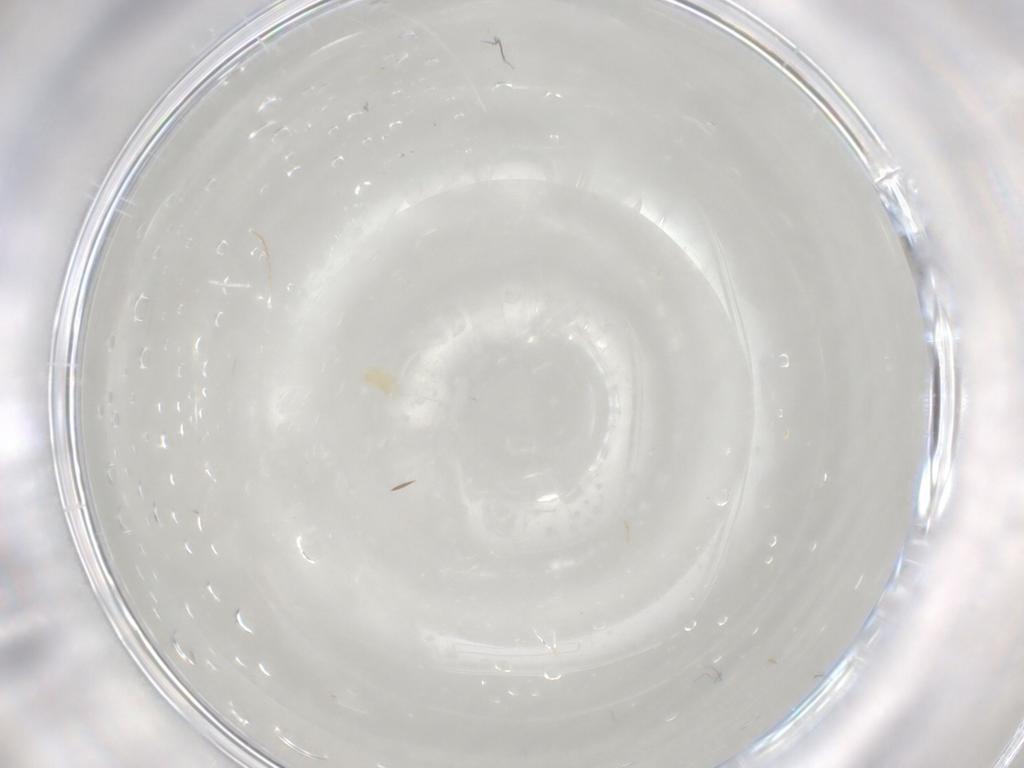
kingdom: Animalia
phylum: Arthropoda
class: Arachnida
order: Trombidiformes
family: Eupodidae
